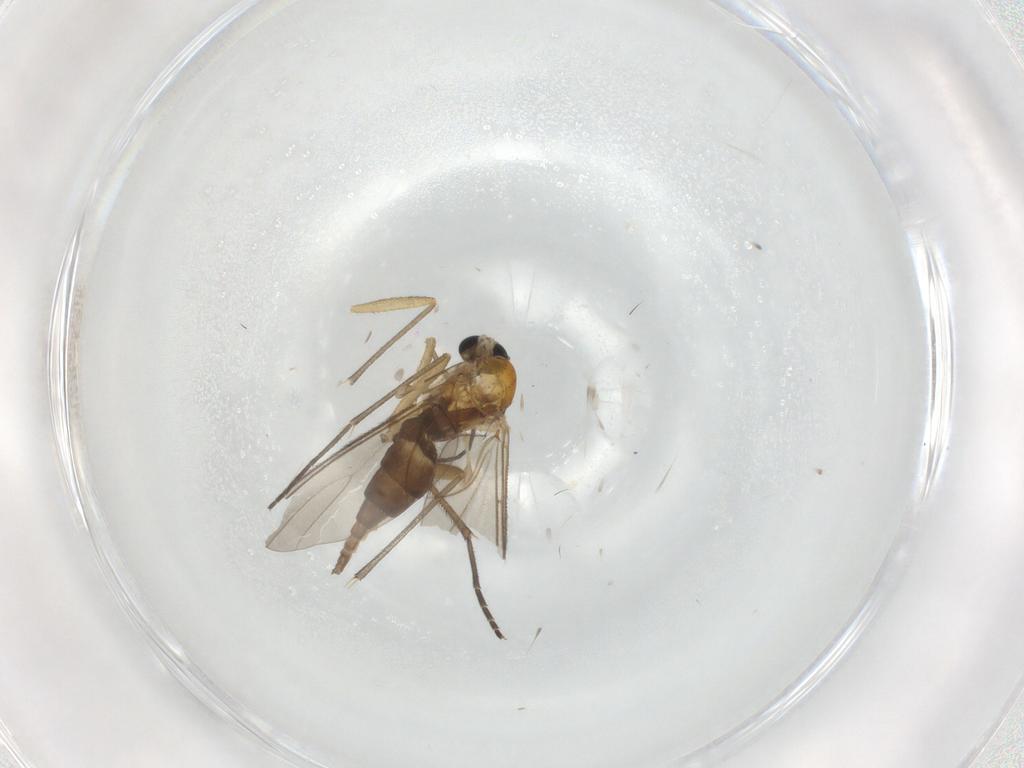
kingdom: Animalia
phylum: Arthropoda
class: Insecta
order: Diptera
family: Sciaridae
